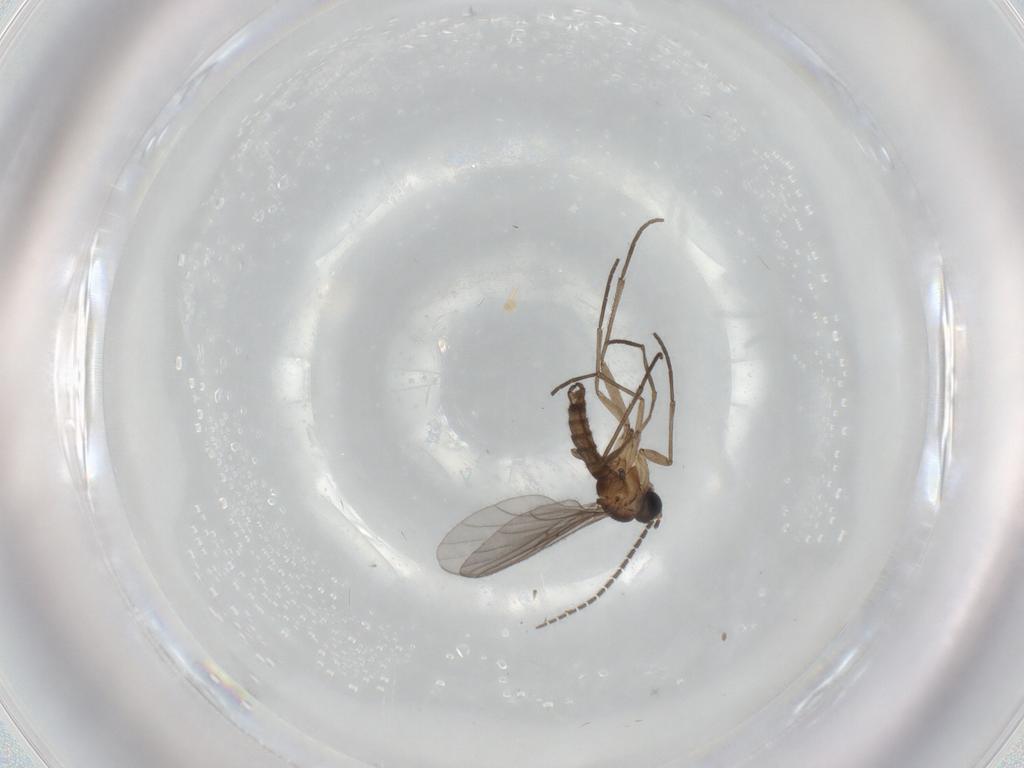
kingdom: Animalia
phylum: Arthropoda
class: Insecta
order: Diptera
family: Sciaridae
